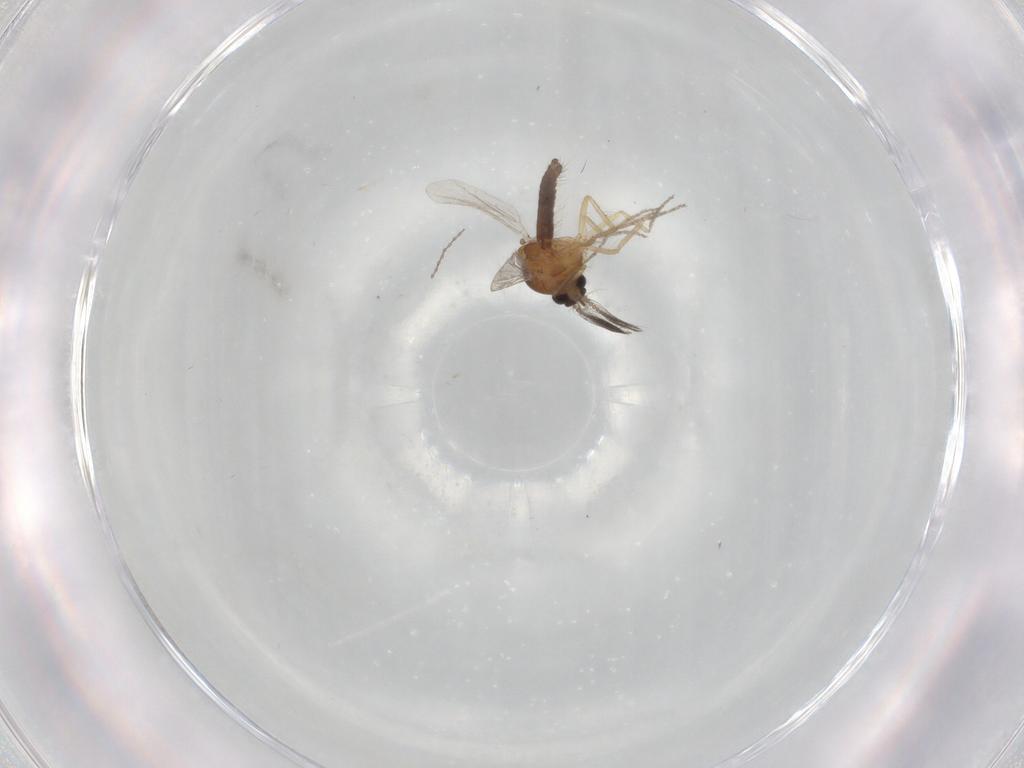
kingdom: Animalia
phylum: Arthropoda
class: Insecta
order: Diptera
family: Ceratopogonidae
